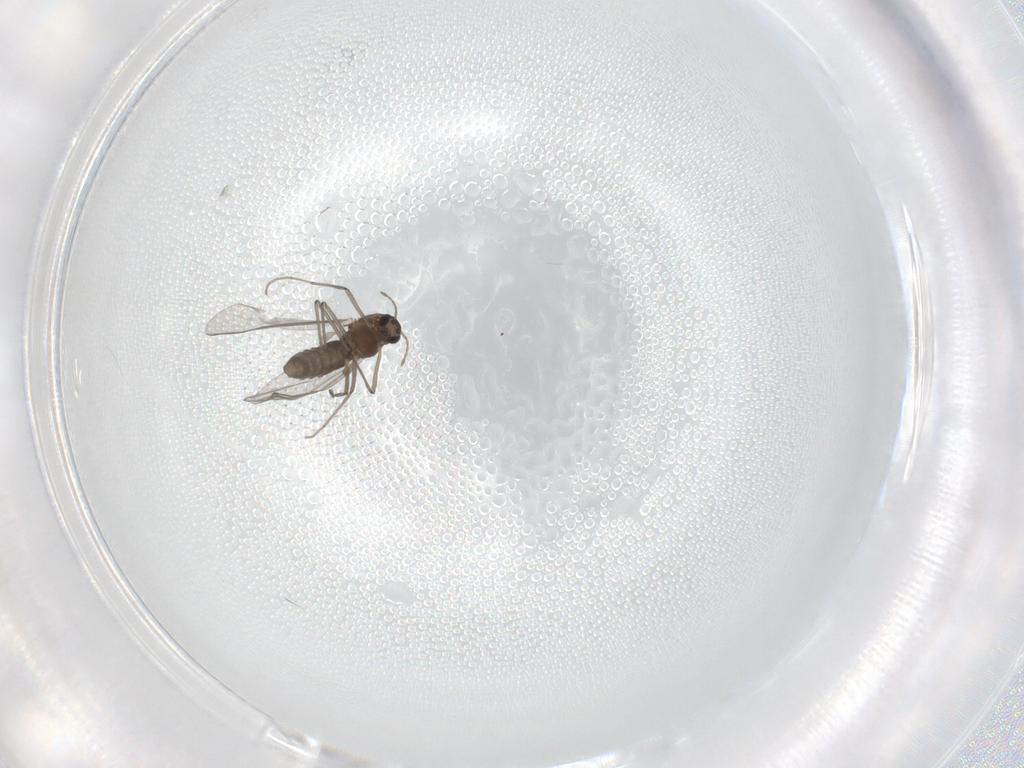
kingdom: Animalia
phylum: Arthropoda
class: Insecta
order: Diptera
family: Chironomidae
